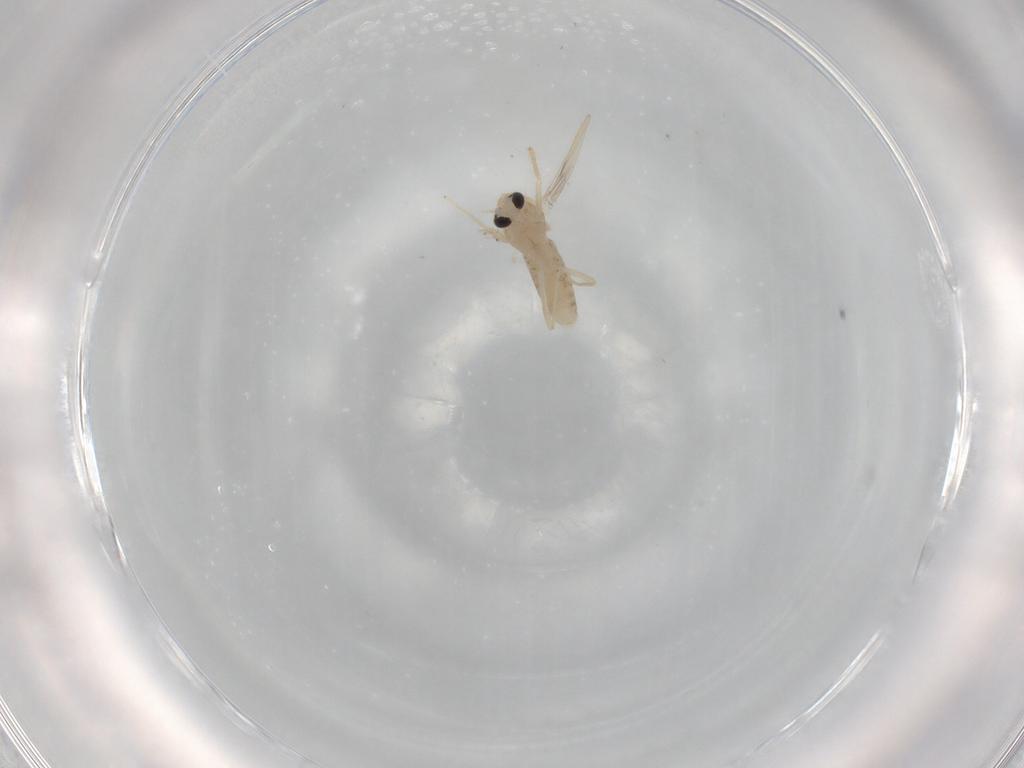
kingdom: Animalia
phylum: Arthropoda
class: Insecta
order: Diptera
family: Chironomidae
